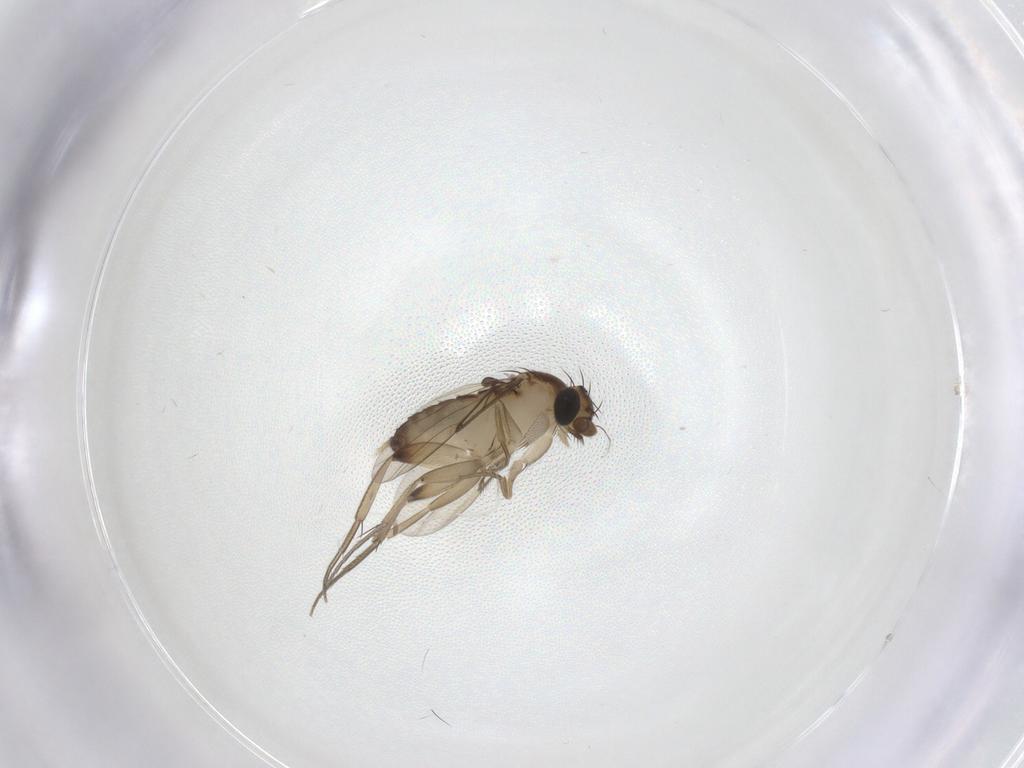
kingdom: Animalia
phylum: Arthropoda
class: Insecta
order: Diptera
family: Phoridae
